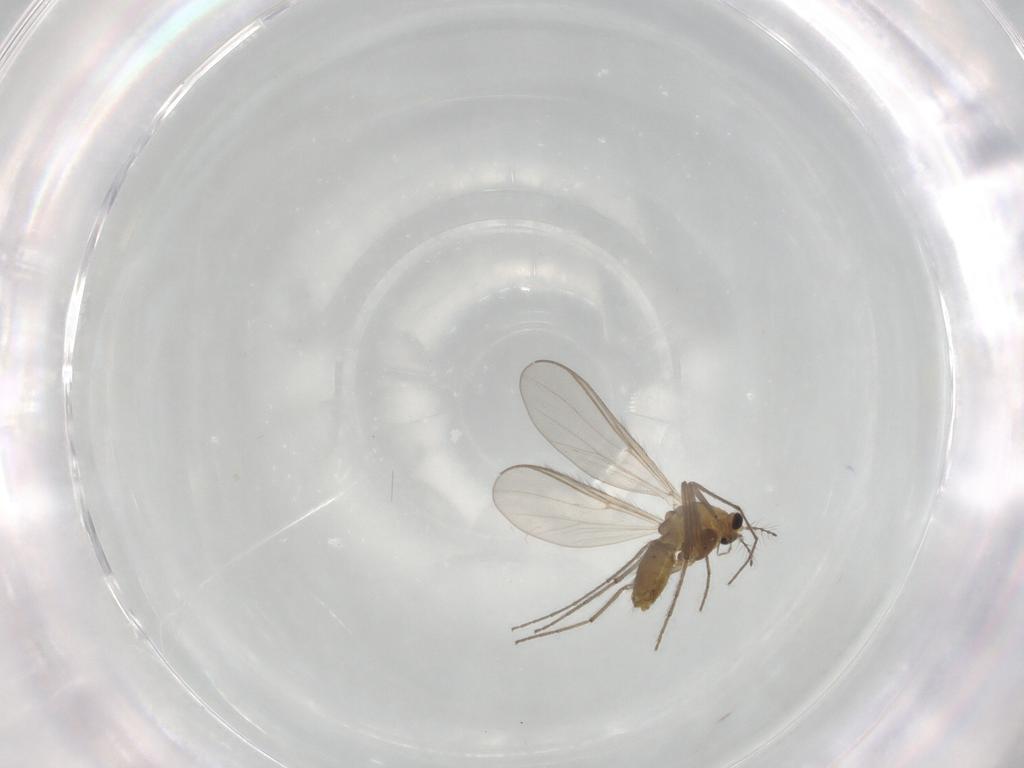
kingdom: Animalia
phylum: Arthropoda
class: Insecta
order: Diptera
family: Chironomidae
